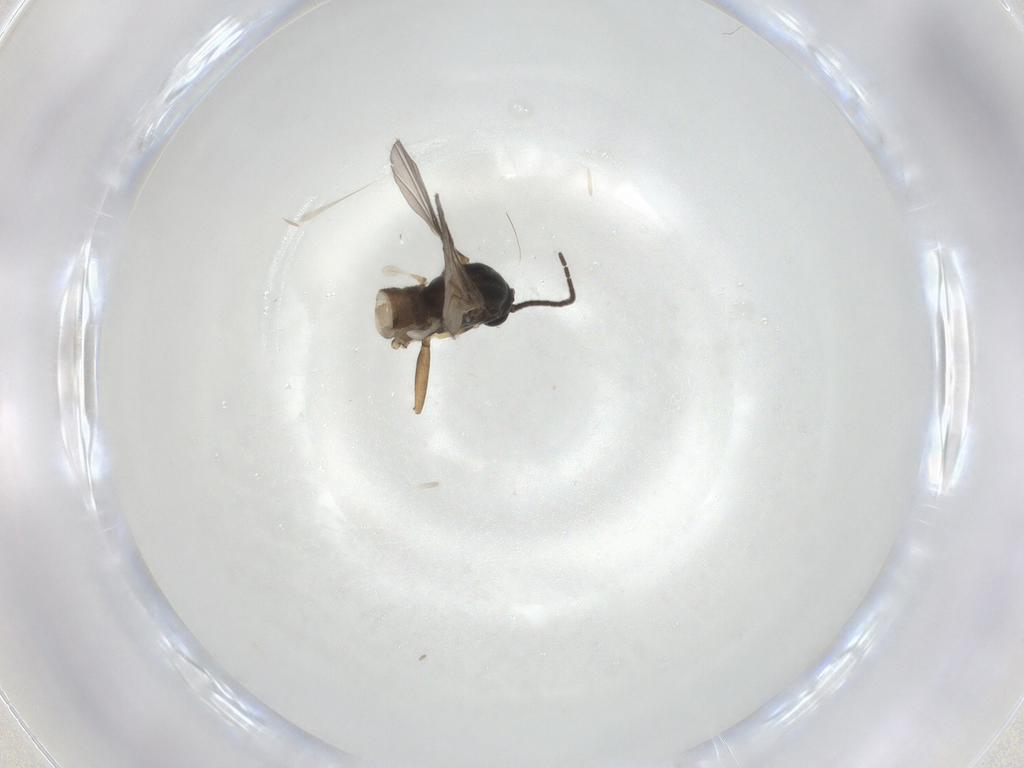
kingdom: Animalia
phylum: Arthropoda
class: Insecta
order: Diptera
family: Sciaridae
